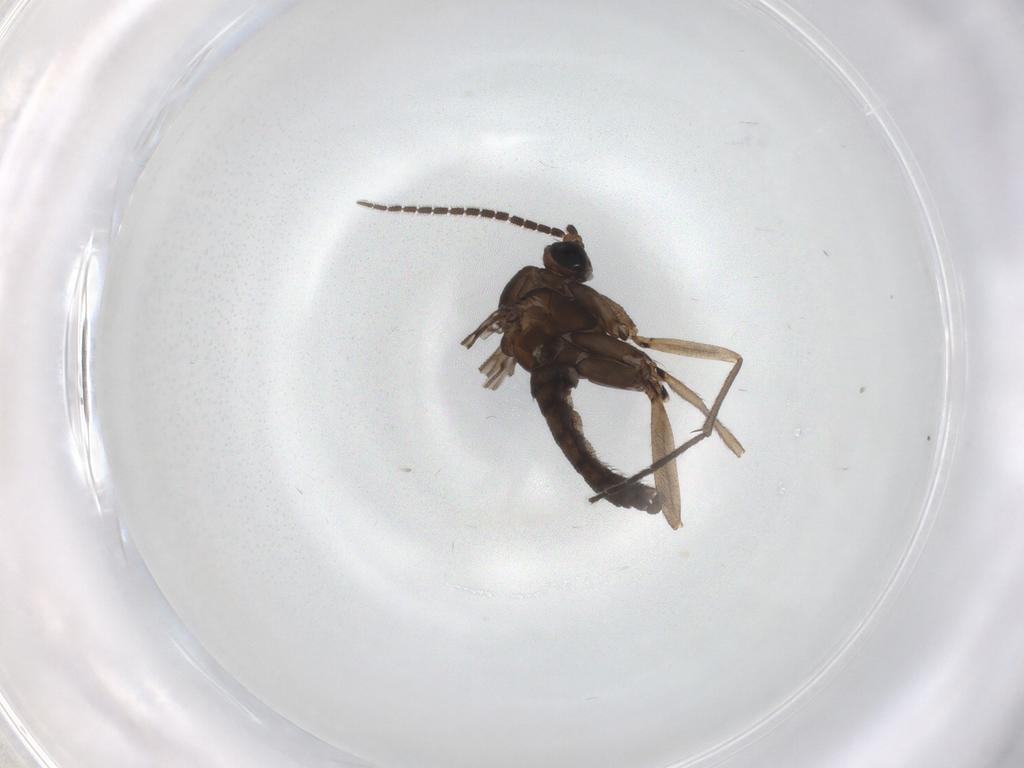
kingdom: Animalia
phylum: Arthropoda
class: Insecta
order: Diptera
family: Sciaridae
